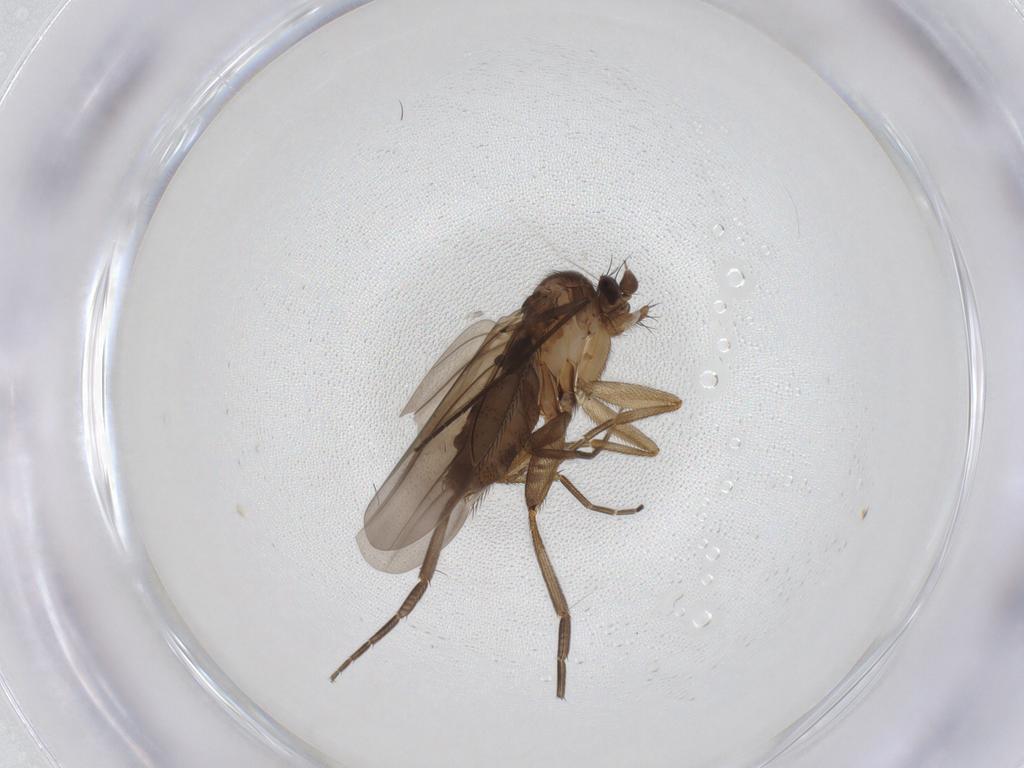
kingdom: Animalia
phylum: Arthropoda
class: Insecta
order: Diptera
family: Phoridae
